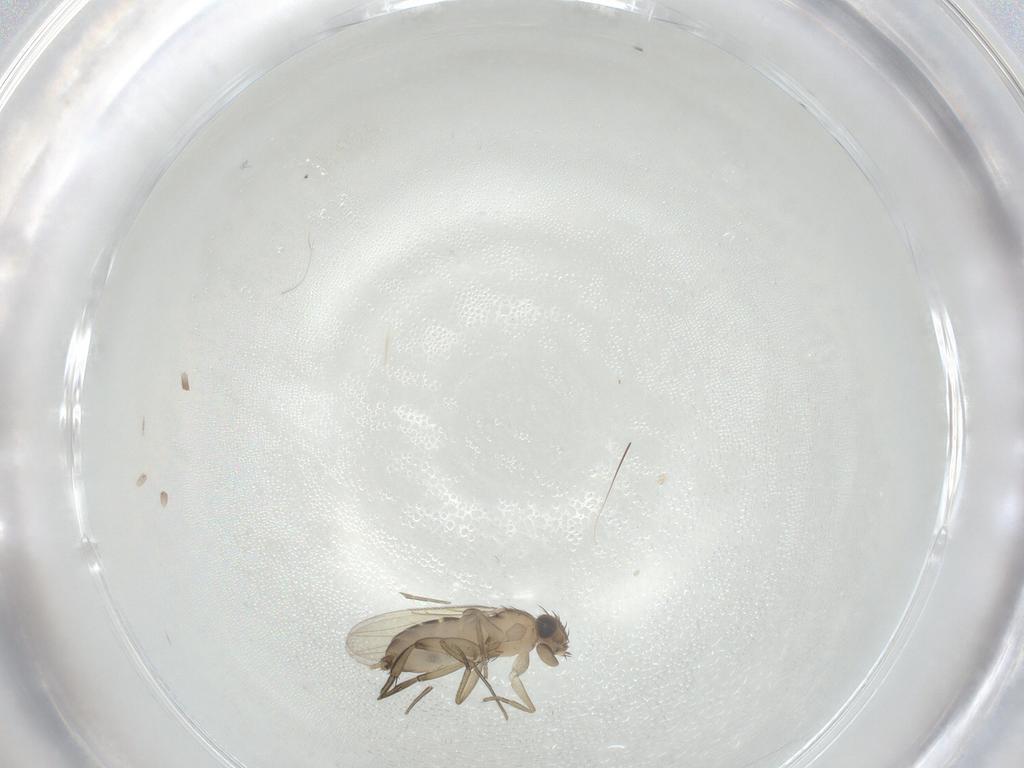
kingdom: Animalia
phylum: Arthropoda
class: Insecta
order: Diptera
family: Phoridae
